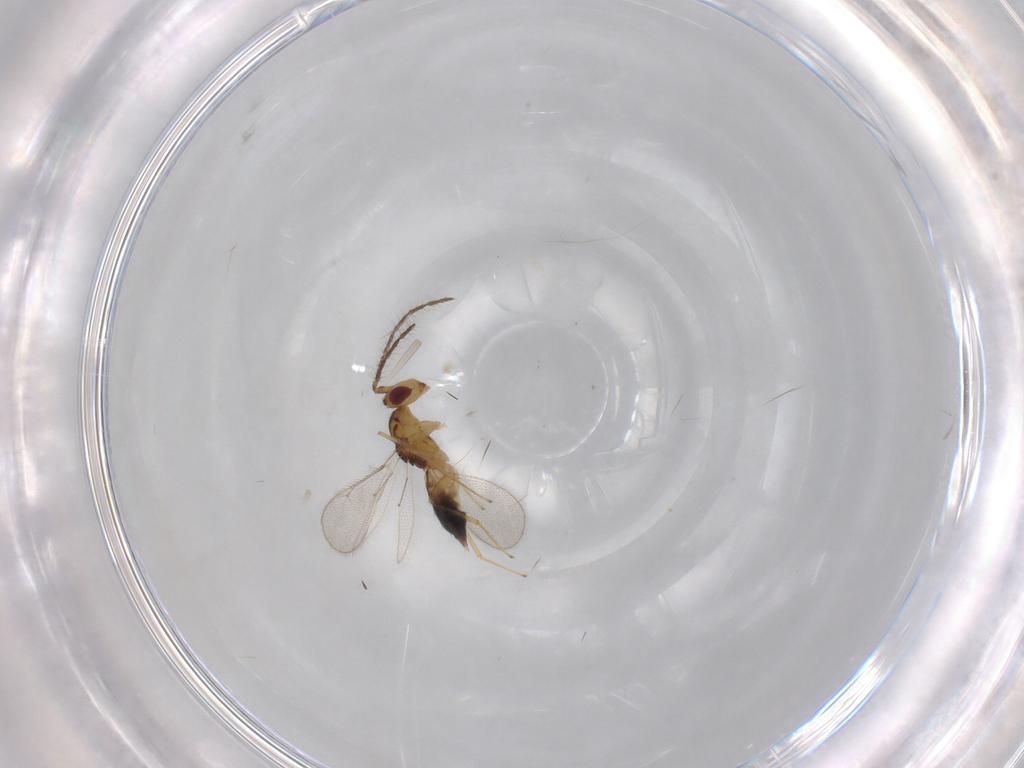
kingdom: Animalia
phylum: Arthropoda
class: Insecta
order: Hymenoptera
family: Eulophidae
